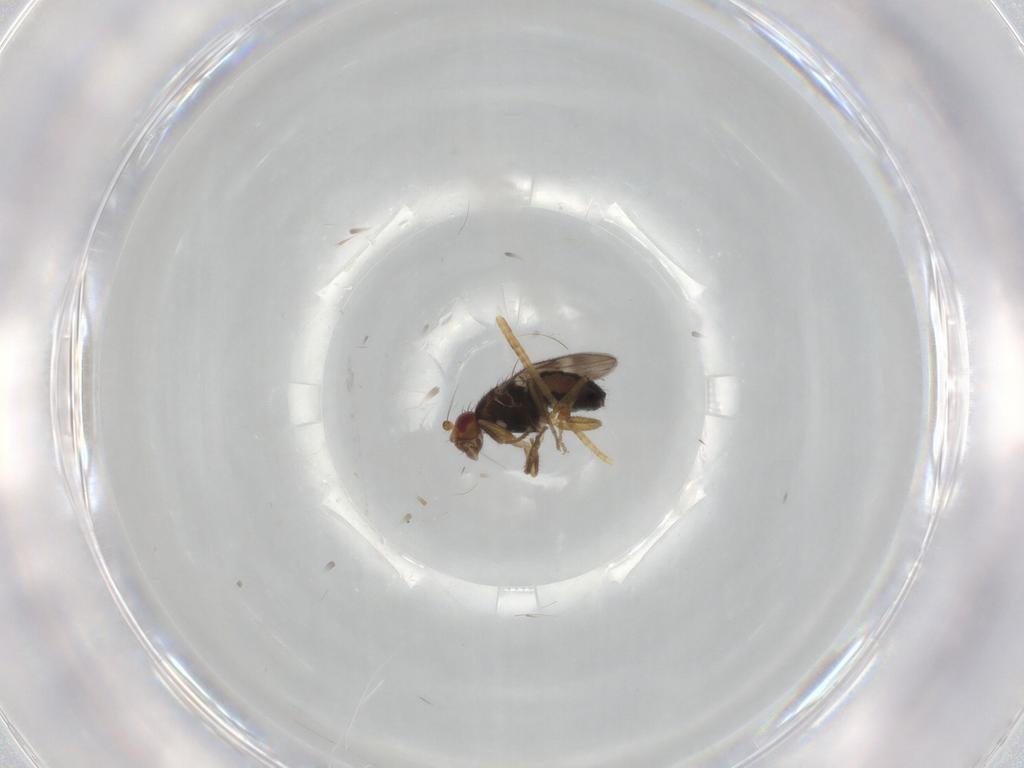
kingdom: Animalia
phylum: Arthropoda
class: Insecta
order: Diptera
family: Sphaeroceridae
